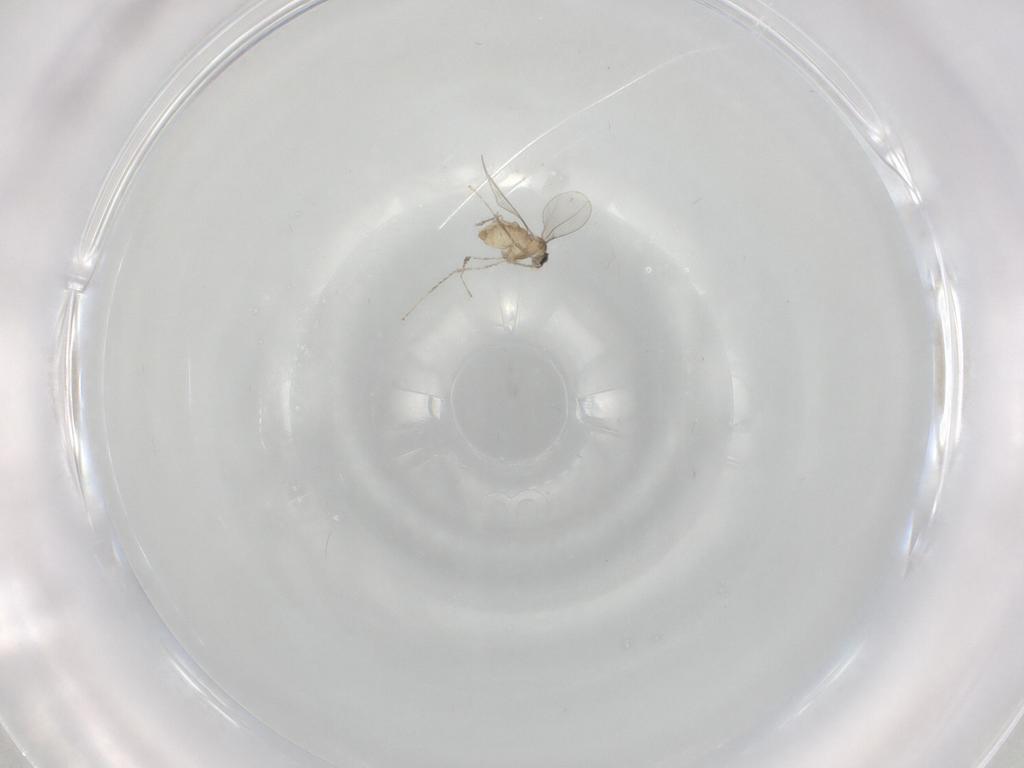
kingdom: Animalia
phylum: Arthropoda
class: Insecta
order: Diptera
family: Cecidomyiidae
